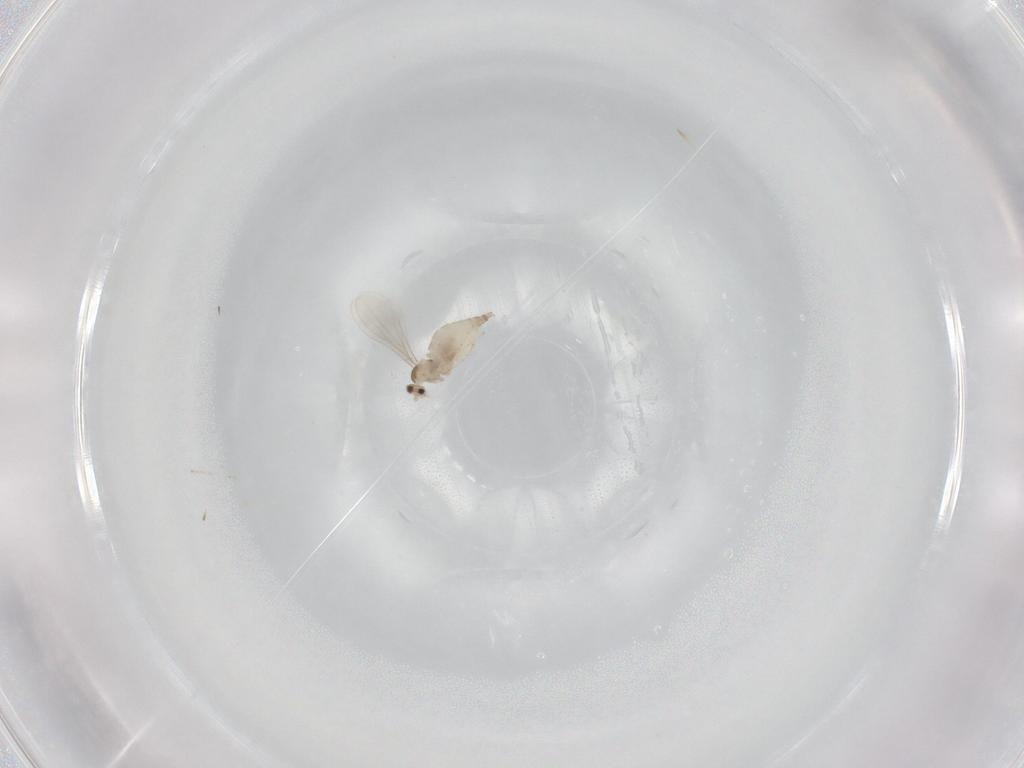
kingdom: Animalia
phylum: Arthropoda
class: Insecta
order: Diptera
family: Cecidomyiidae
